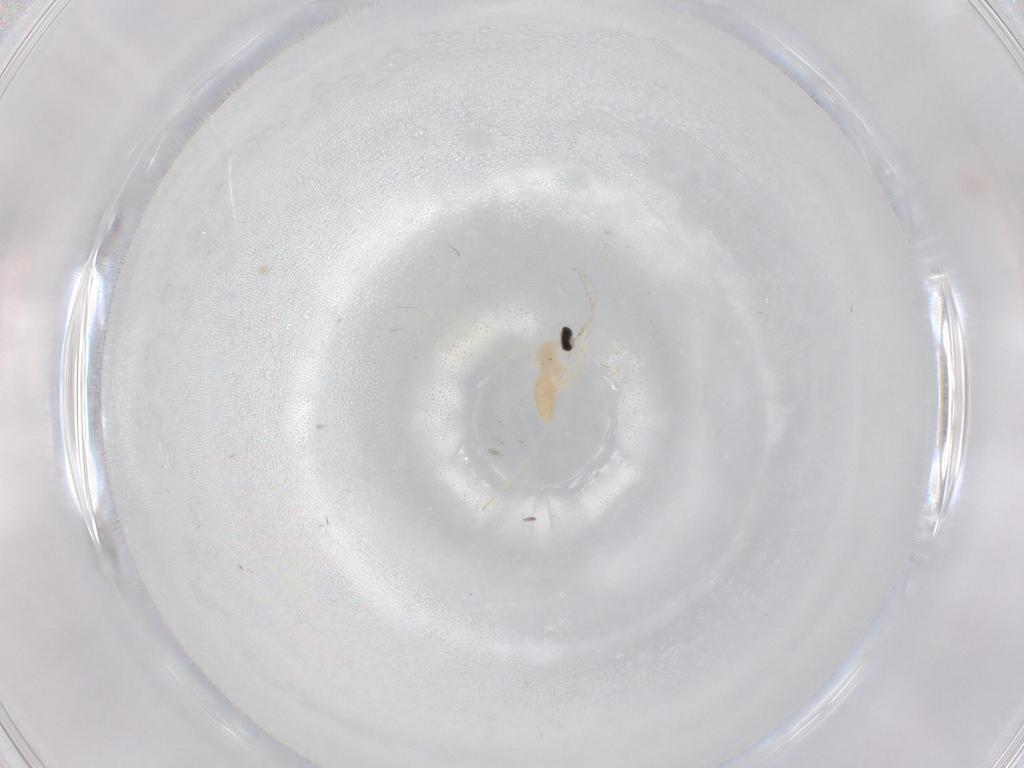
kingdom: Animalia
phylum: Arthropoda
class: Insecta
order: Diptera
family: Cecidomyiidae
